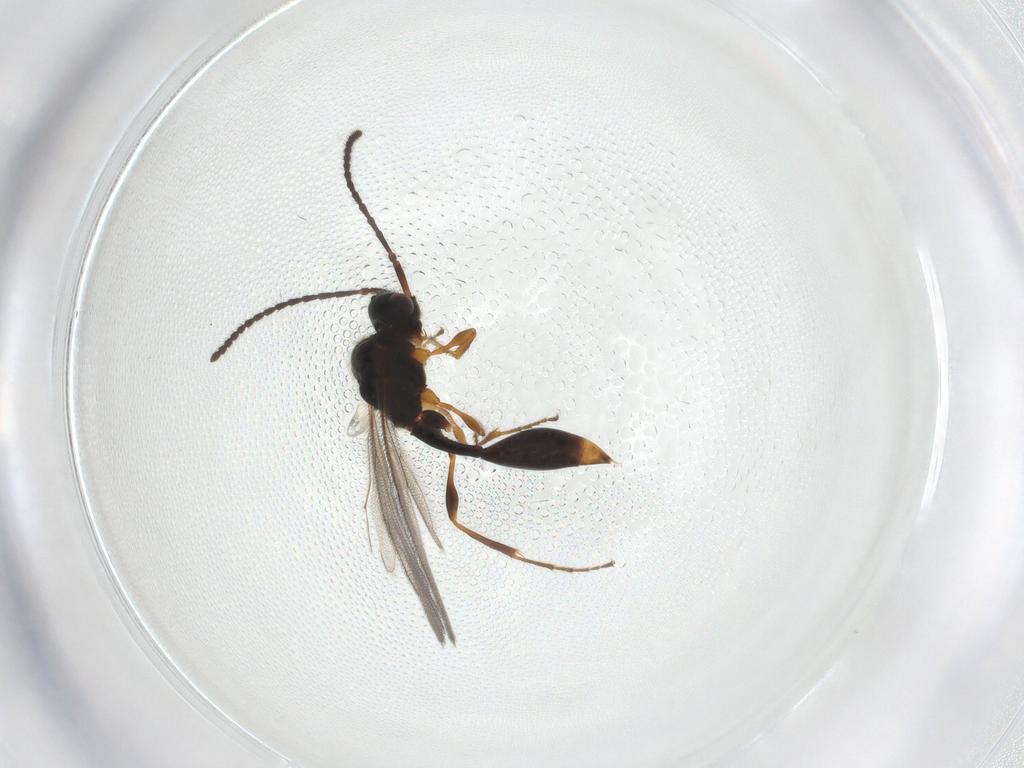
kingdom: Animalia
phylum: Arthropoda
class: Insecta
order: Hymenoptera
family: Diapriidae
